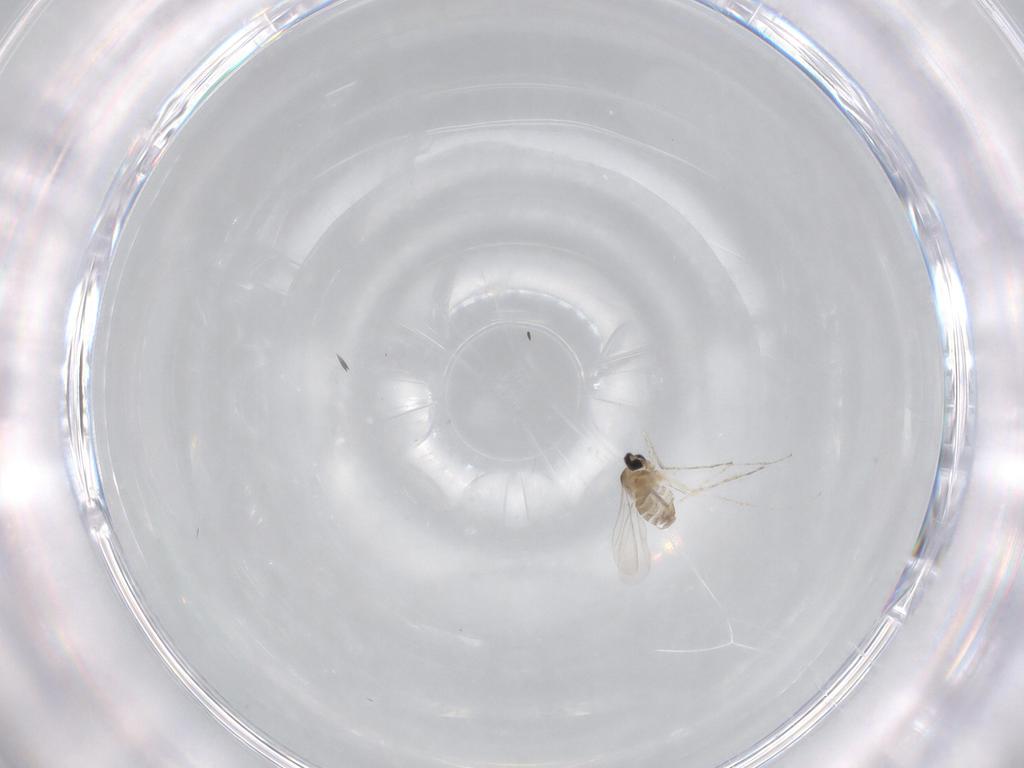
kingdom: Animalia
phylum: Arthropoda
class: Insecta
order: Diptera
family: Cecidomyiidae
